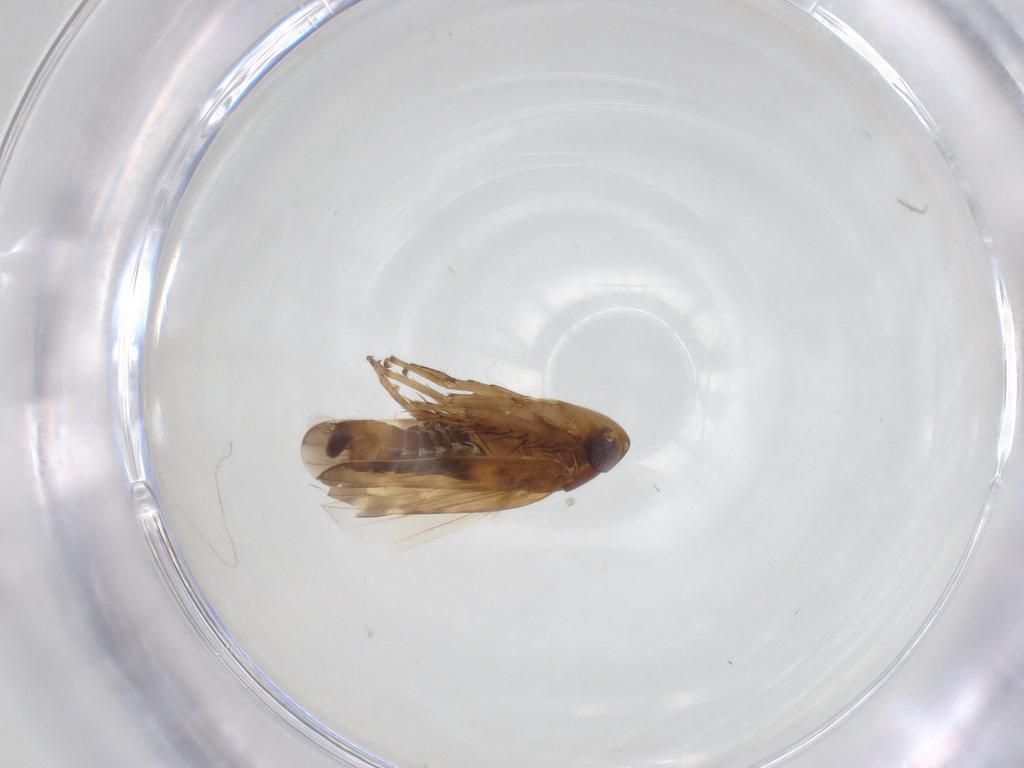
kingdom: Animalia
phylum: Arthropoda
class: Insecta
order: Hemiptera
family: Cicadellidae
